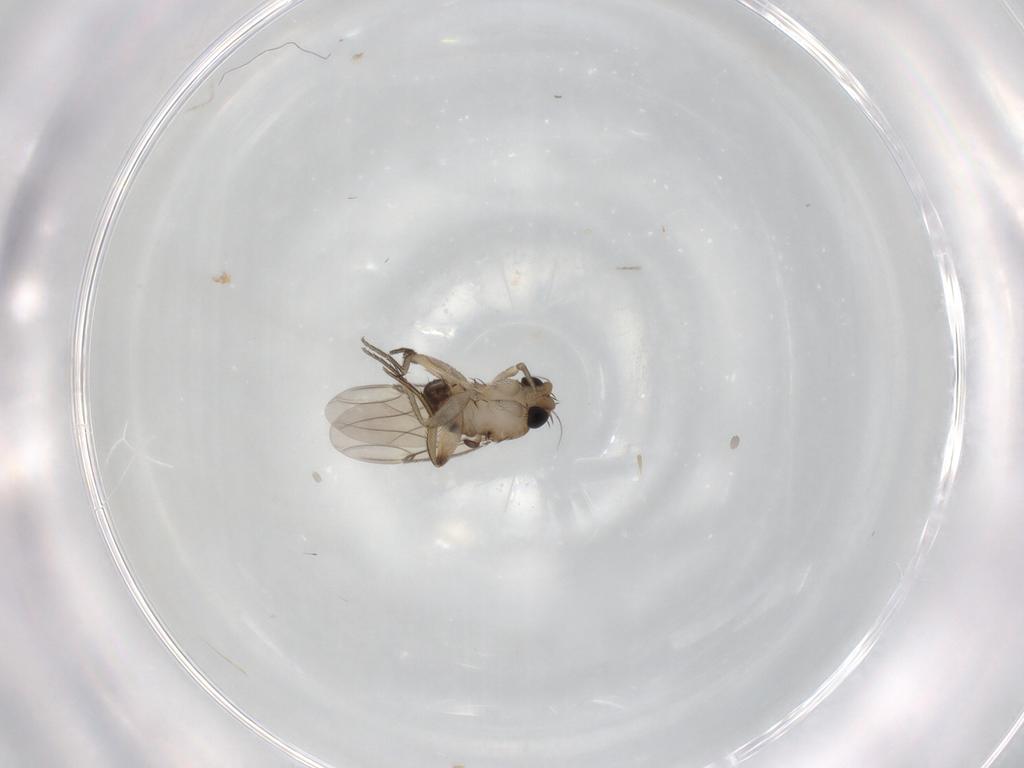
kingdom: Animalia
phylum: Arthropoda
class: Insecta
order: Diptera
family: Phoridae
